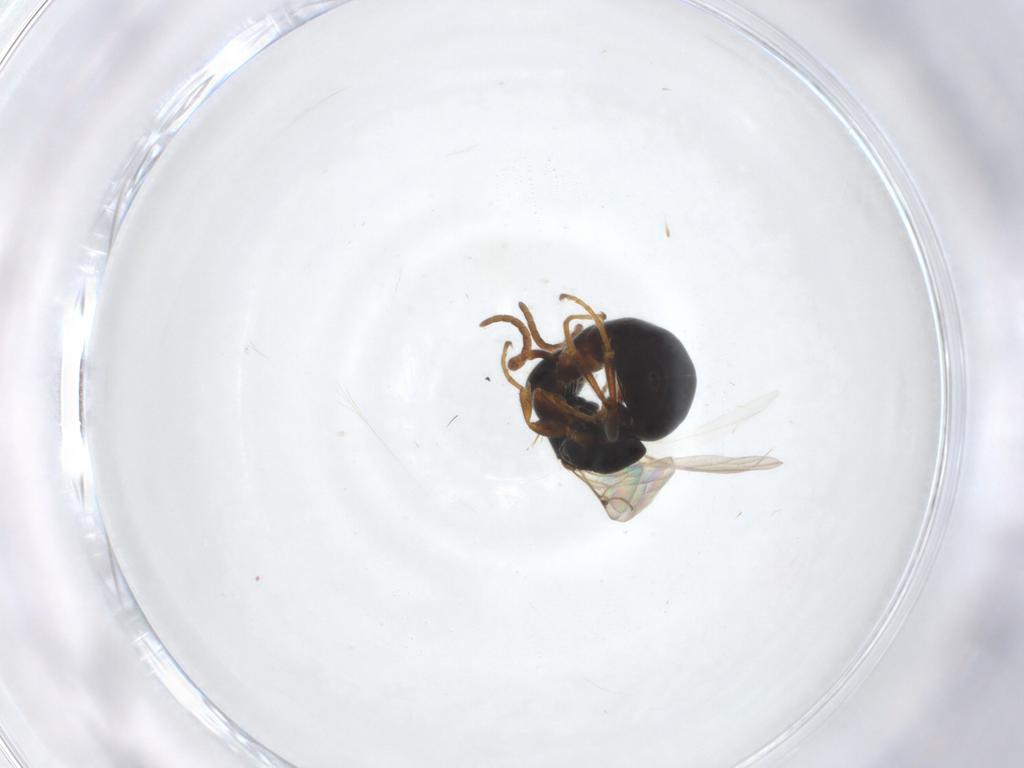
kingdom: Animalia
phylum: Arthropoda
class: Insecta
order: Hymenoptera
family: Bethylidae
